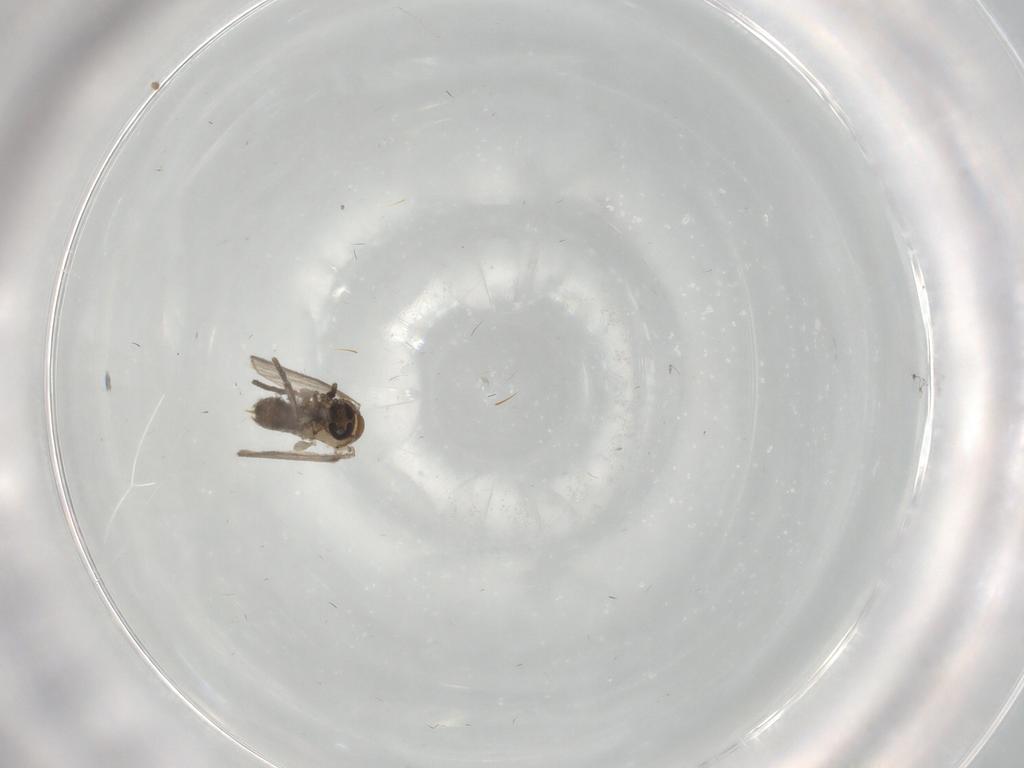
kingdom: Animalia
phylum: Arthropoda
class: Insecta
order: Diptera
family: Psychodidae
